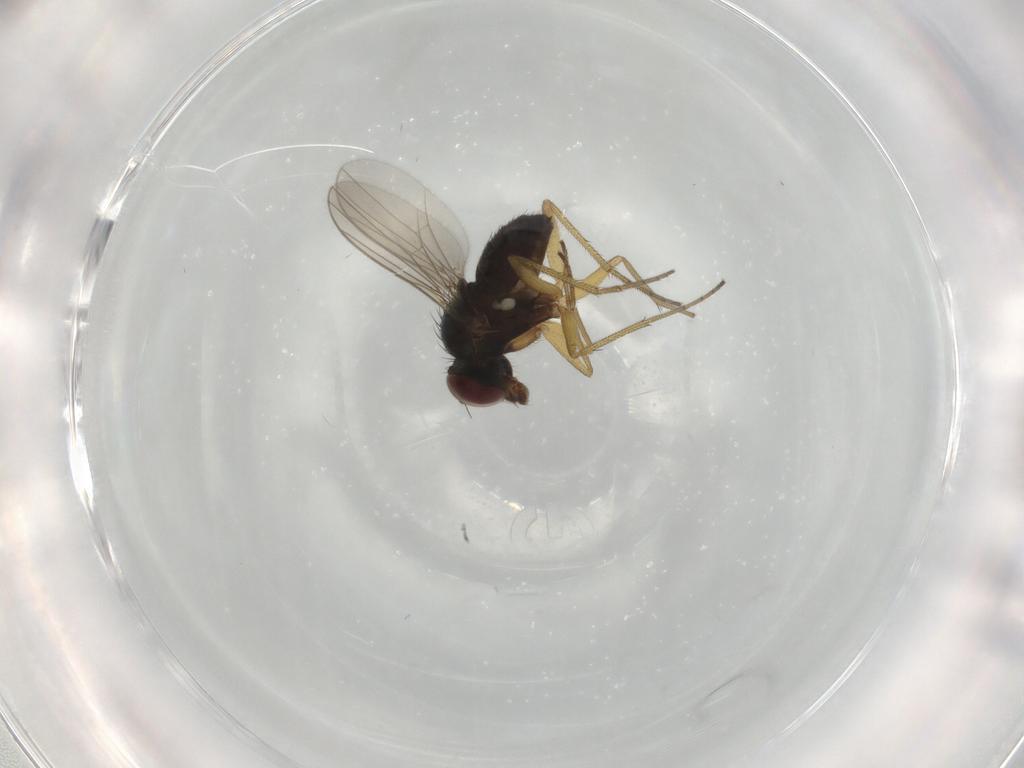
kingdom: Animalia
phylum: Arthropoda
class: Insecta
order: Diptera
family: Dolichopodidae
